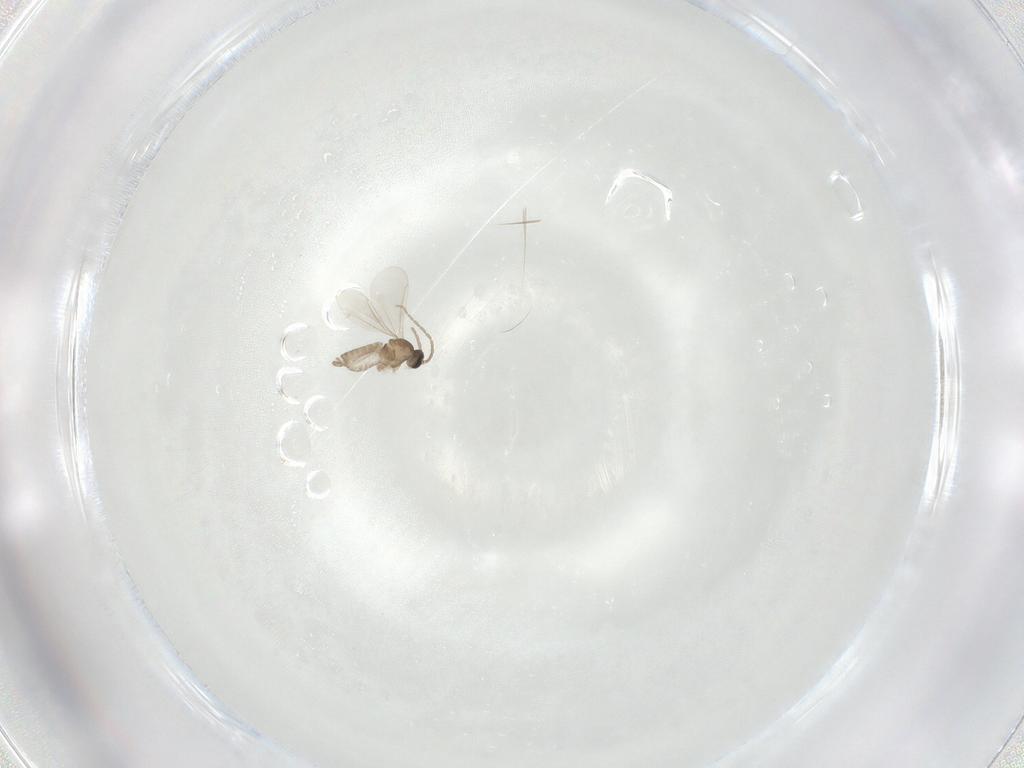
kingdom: Animalia
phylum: Arthropoda
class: Insecta
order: Diptera
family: Cecidomyiidae
